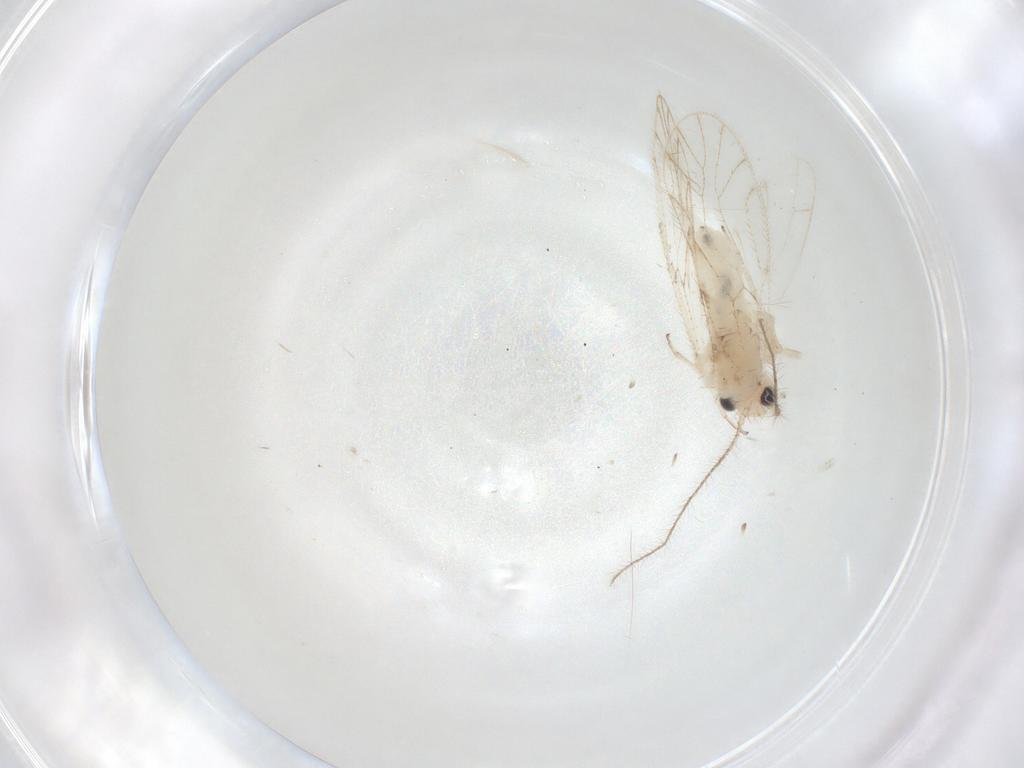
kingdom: Animalia
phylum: Arthropoda
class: Insecta
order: Psocodea
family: Trichopsocidae
